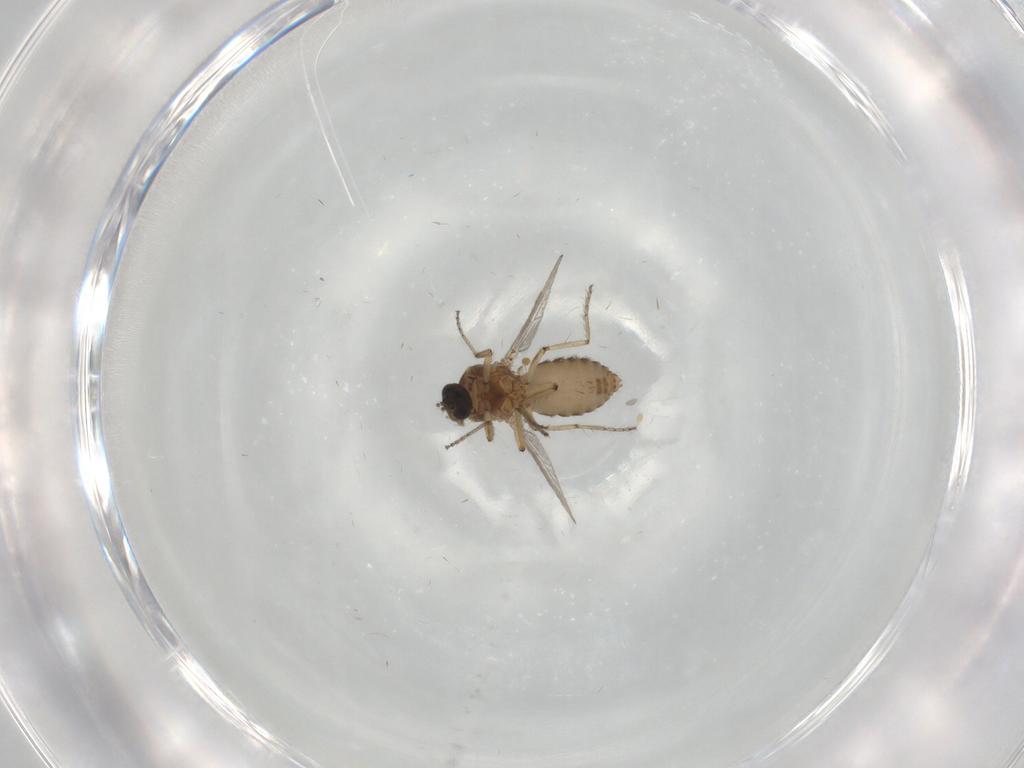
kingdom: Animalia
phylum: Arthropoda
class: Insecta
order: Diptera
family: Ceratopogonidae
